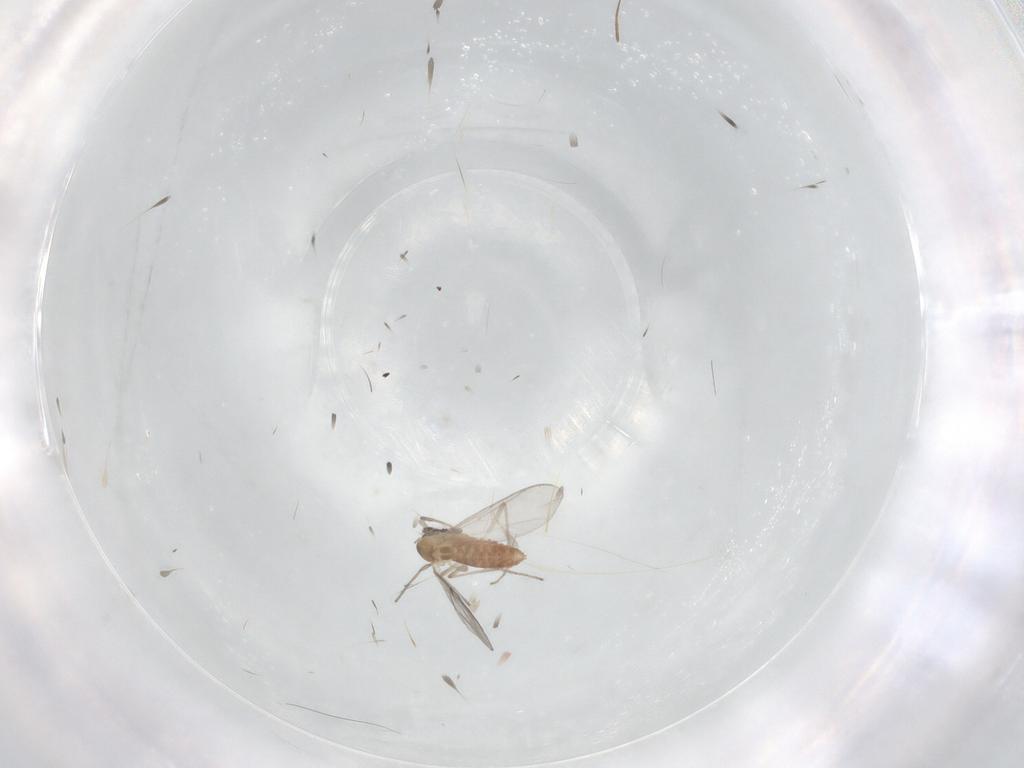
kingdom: Animalia
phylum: Arthropoda
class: Insecta
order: Diptera
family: Chironomidae
